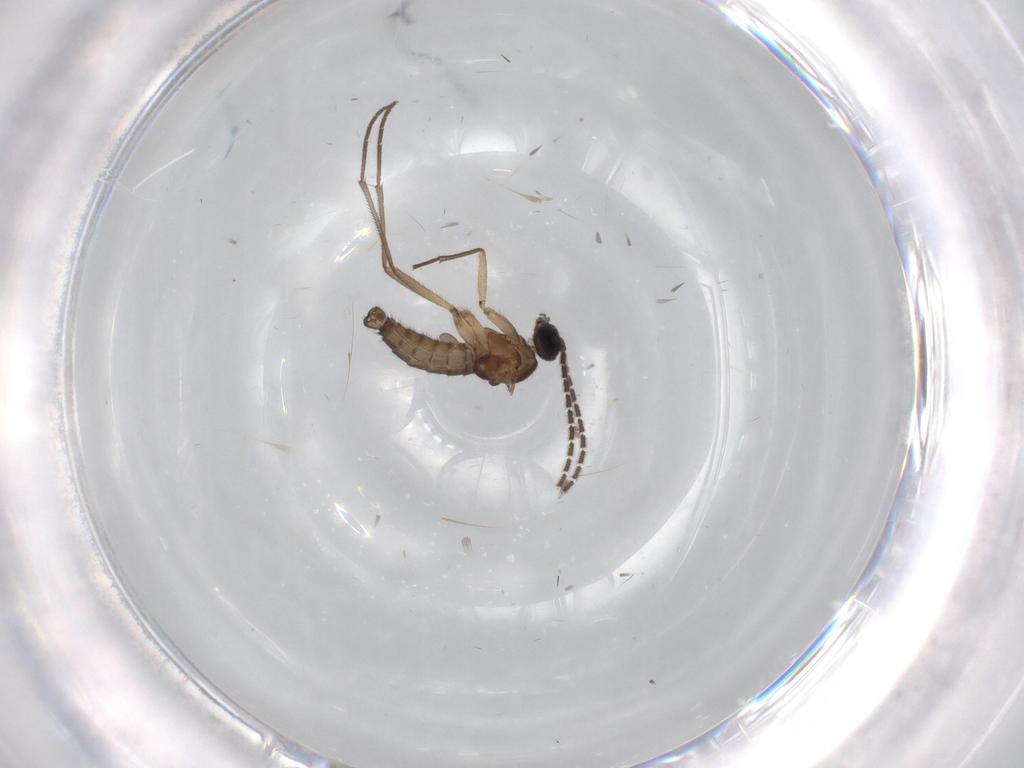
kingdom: Animalia
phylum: Arthropoda
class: Insecta
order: Diptera
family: Sciaridae
